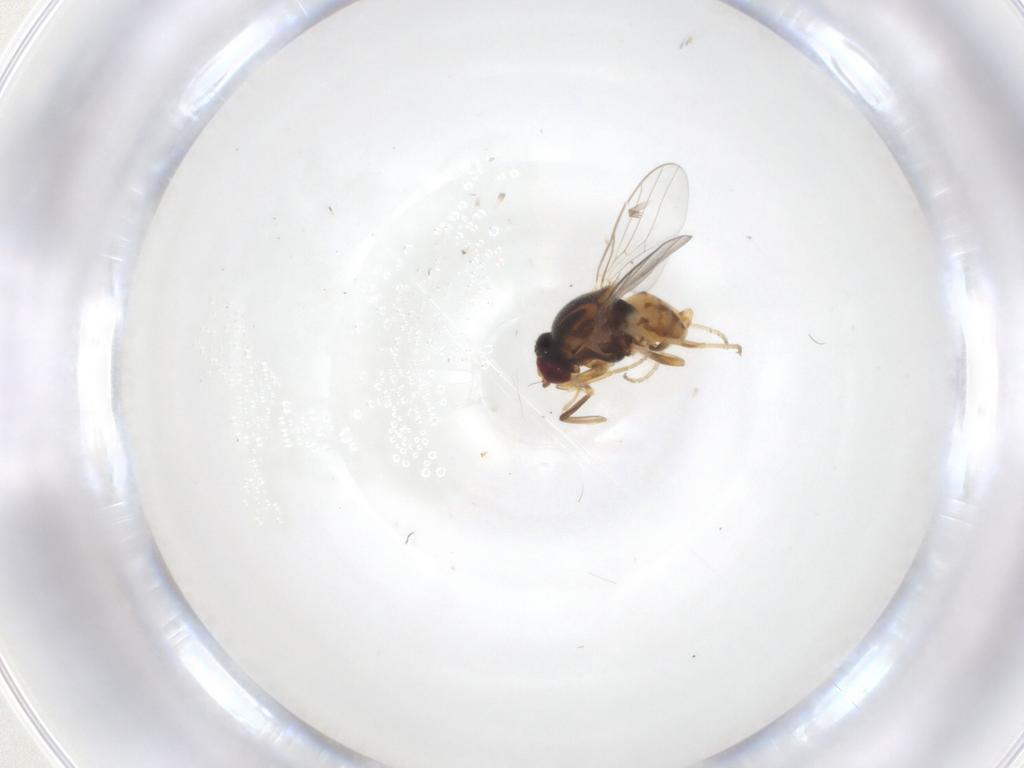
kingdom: Animalia
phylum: Arthropoda
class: Insecta
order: Diptera
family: Chloropidae
